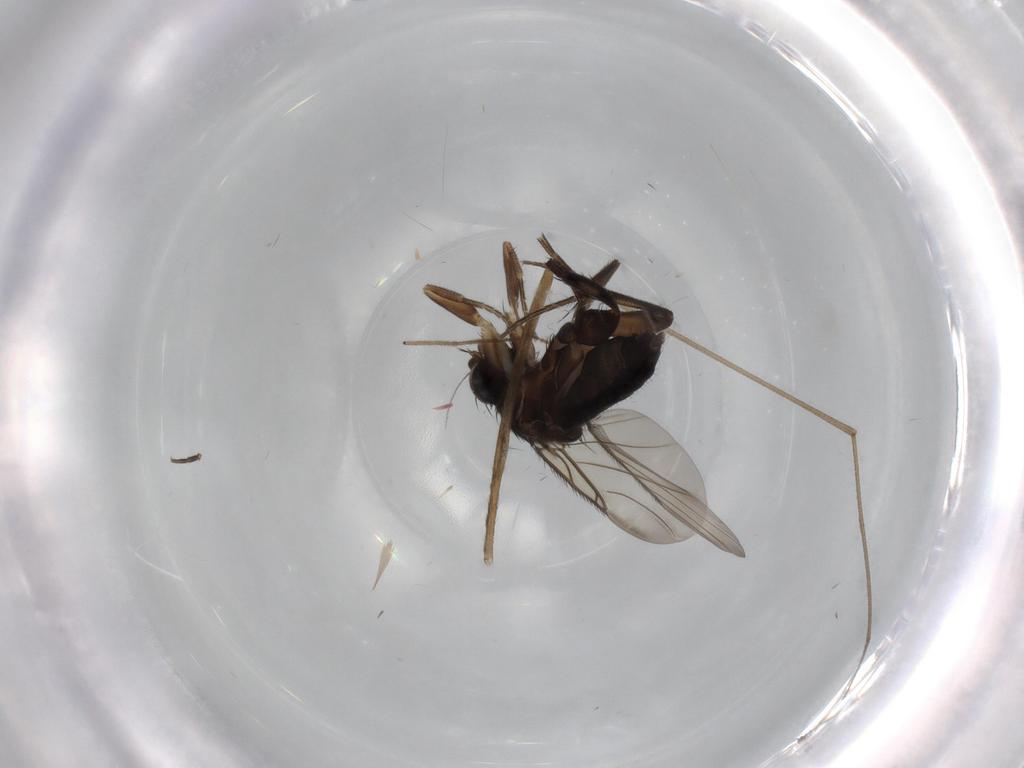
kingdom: Animalia
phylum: Arthropoda
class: Insecta
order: Diptera
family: Limoniidae
